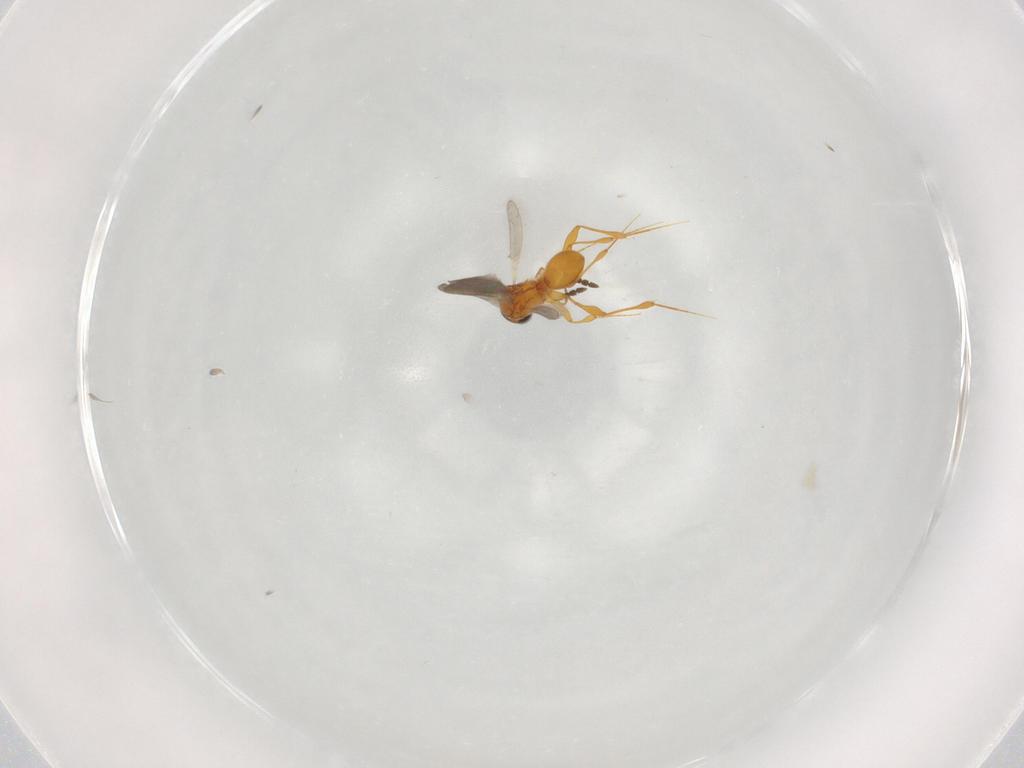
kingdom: Animalia
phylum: Arthropoda
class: Insecta
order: Hymenoptera
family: Platygastridae
